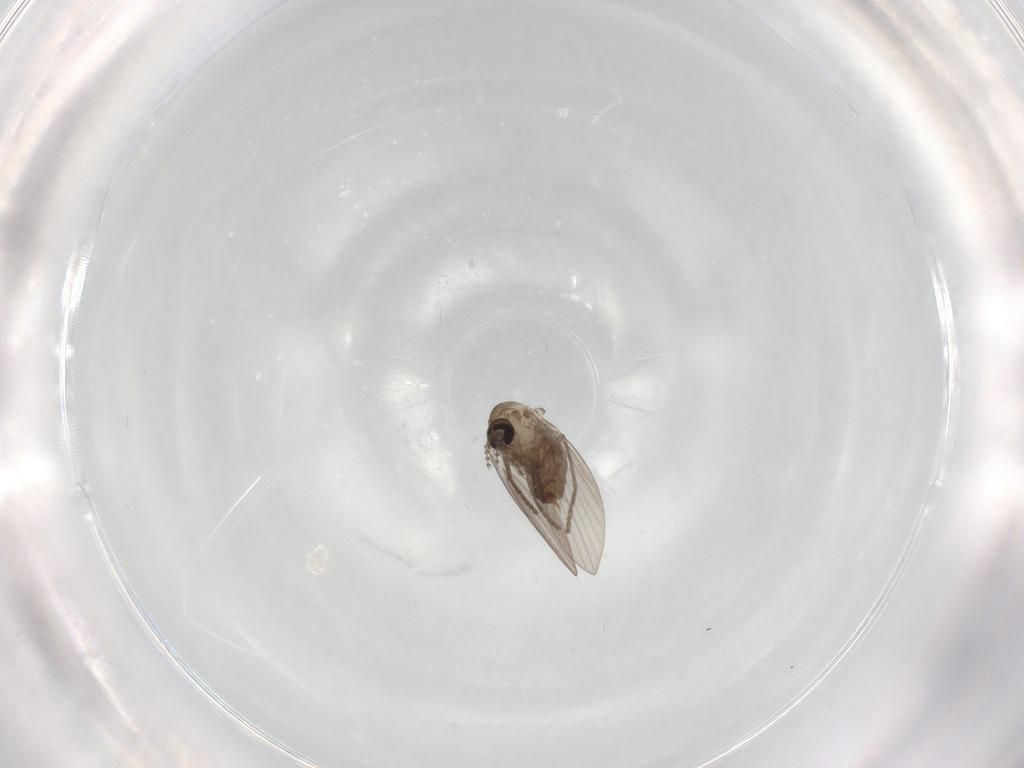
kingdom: Animalia
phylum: Arthropoda
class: Insecta
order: Diptera
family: Psychodidae
